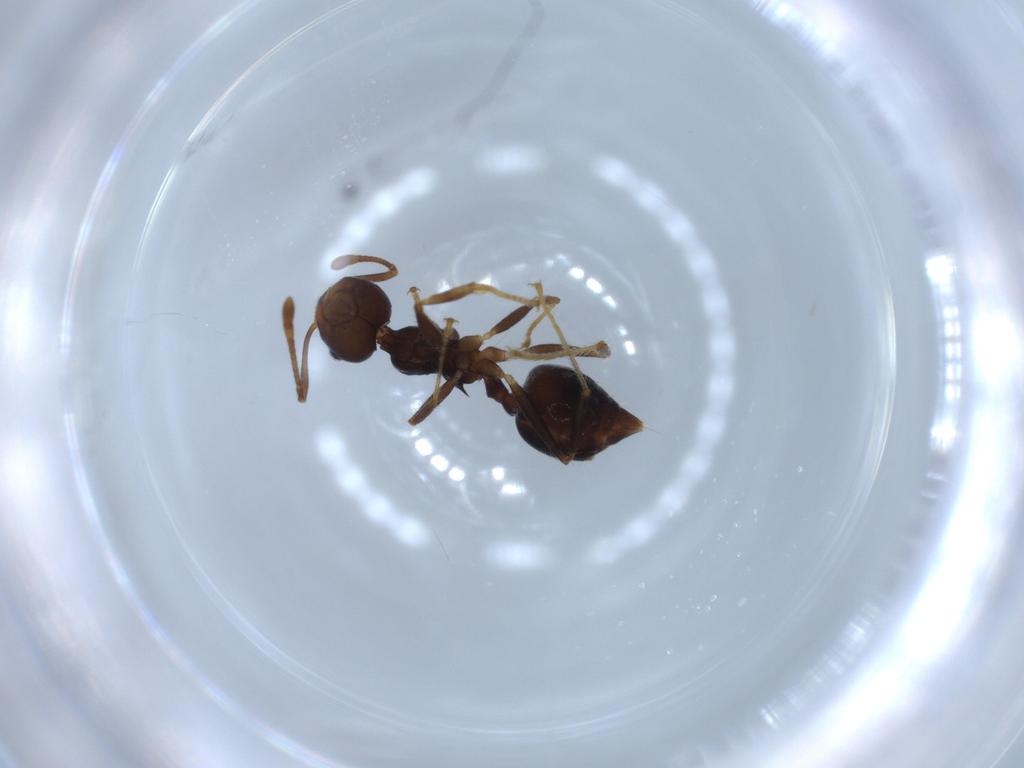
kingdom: Animalia
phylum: Arthropoda
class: Insecta
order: Hymenoptera
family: Formicidae
